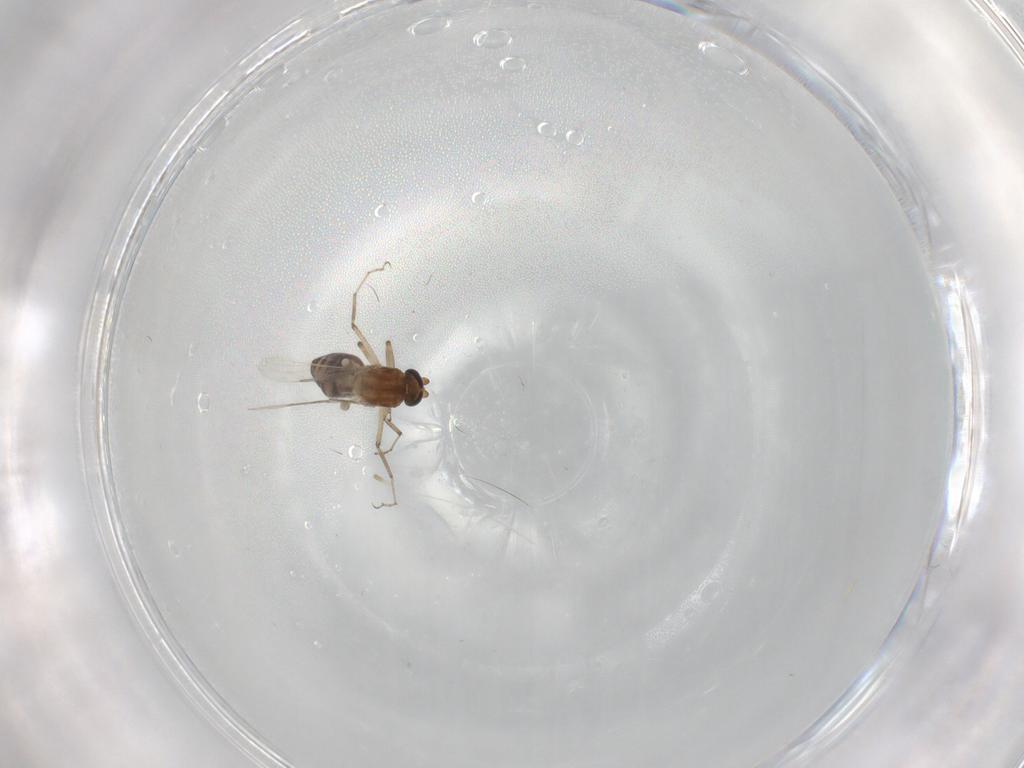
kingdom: Animalia
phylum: Arthropoda
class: Insecta
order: Diptera
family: Ceratopogonidae
